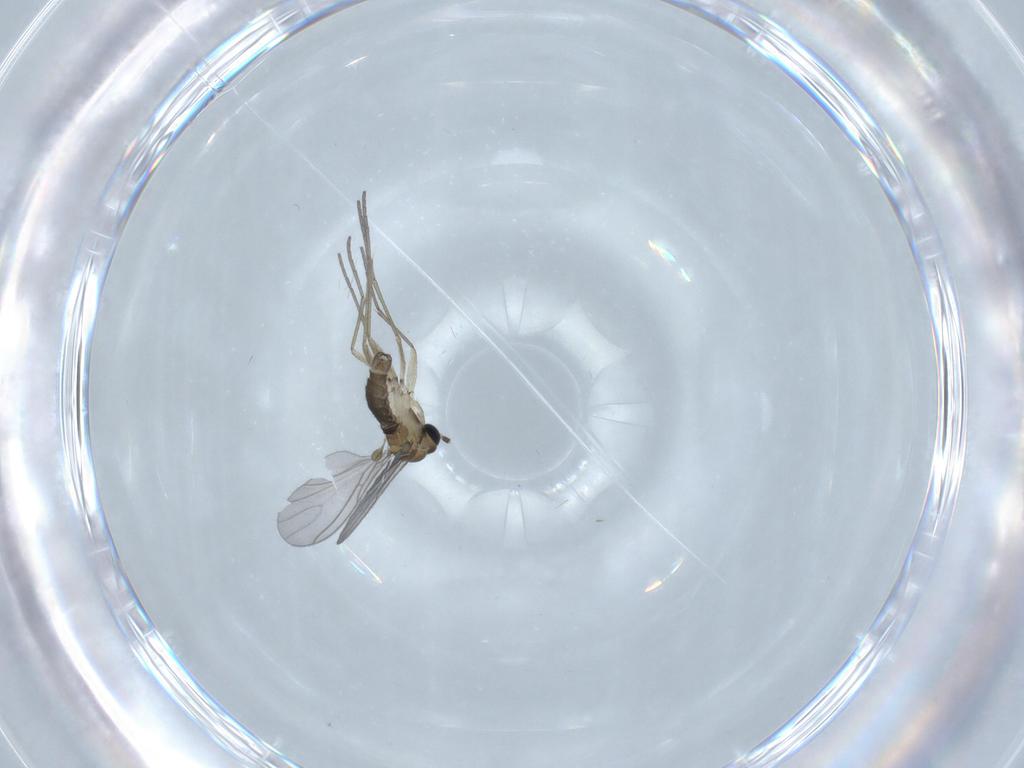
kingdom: Animalia
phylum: Arthropoda
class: Insecta
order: Diptera
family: Sciaridae
